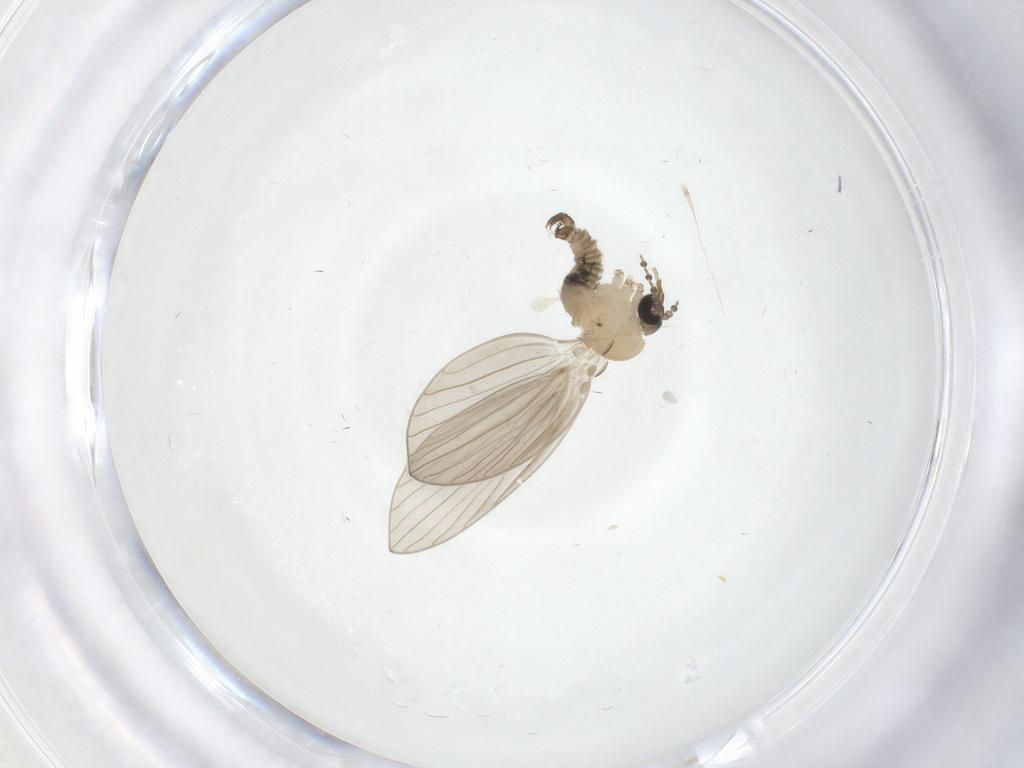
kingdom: Animalia
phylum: Arthropoda
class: Insecta
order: Diptera
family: Psychodidae
